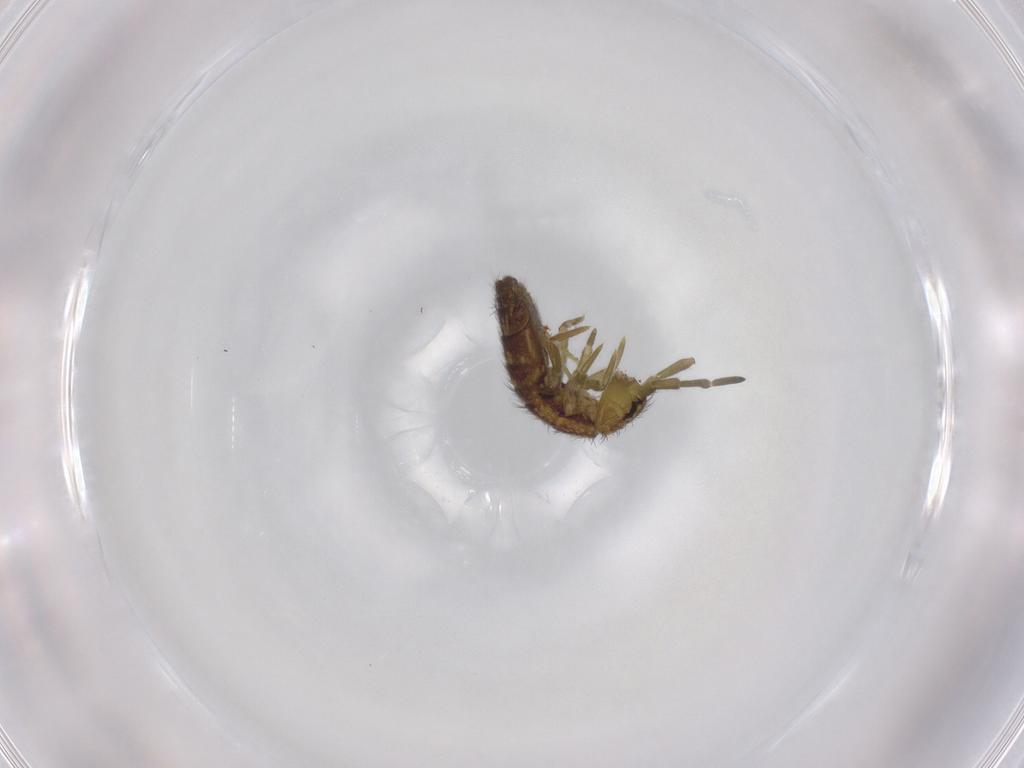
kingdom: Animalia
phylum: Arthropoda
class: Collembola
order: Entomobryomorpha
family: Isotomidae
